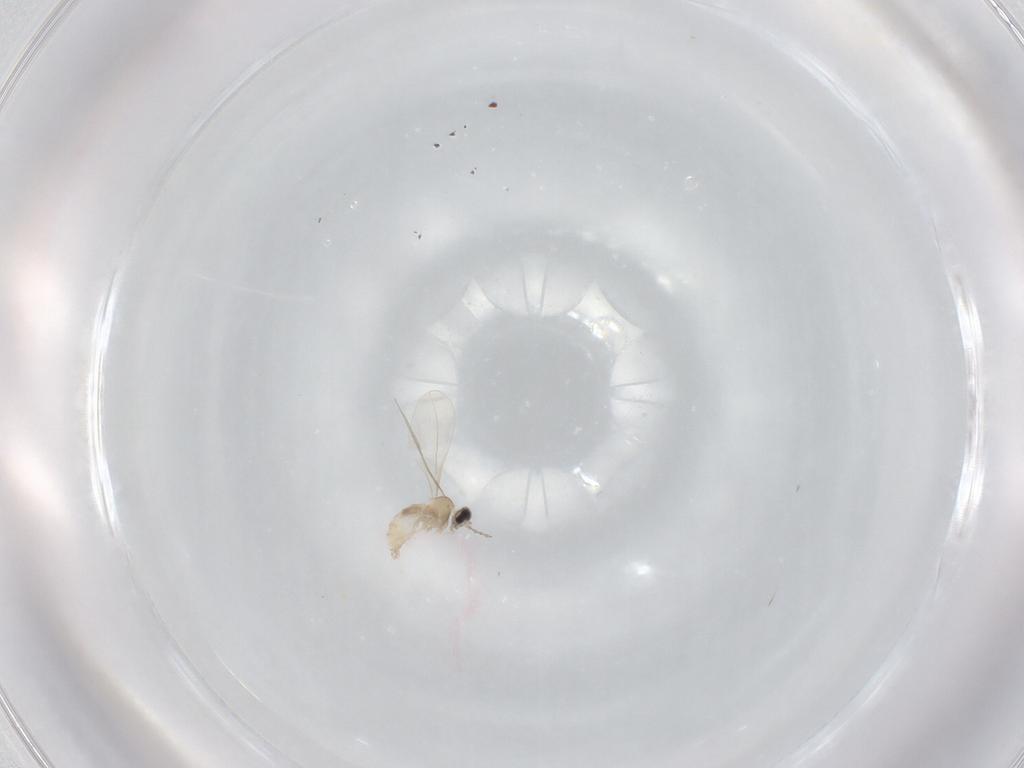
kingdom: Animalia
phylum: Arthropoda
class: Insecta
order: Diptera
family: Cecidomyiidae
